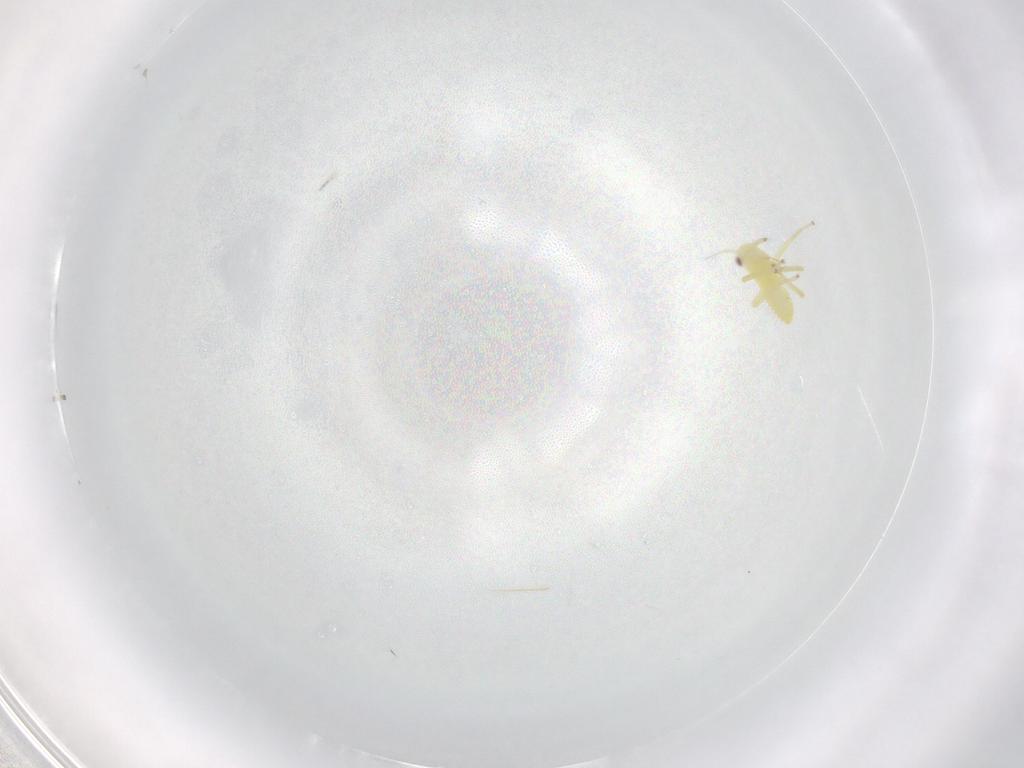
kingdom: Animalia
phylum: Arthropoda
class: Insecta
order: Hemiptera
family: Cicadellidae
